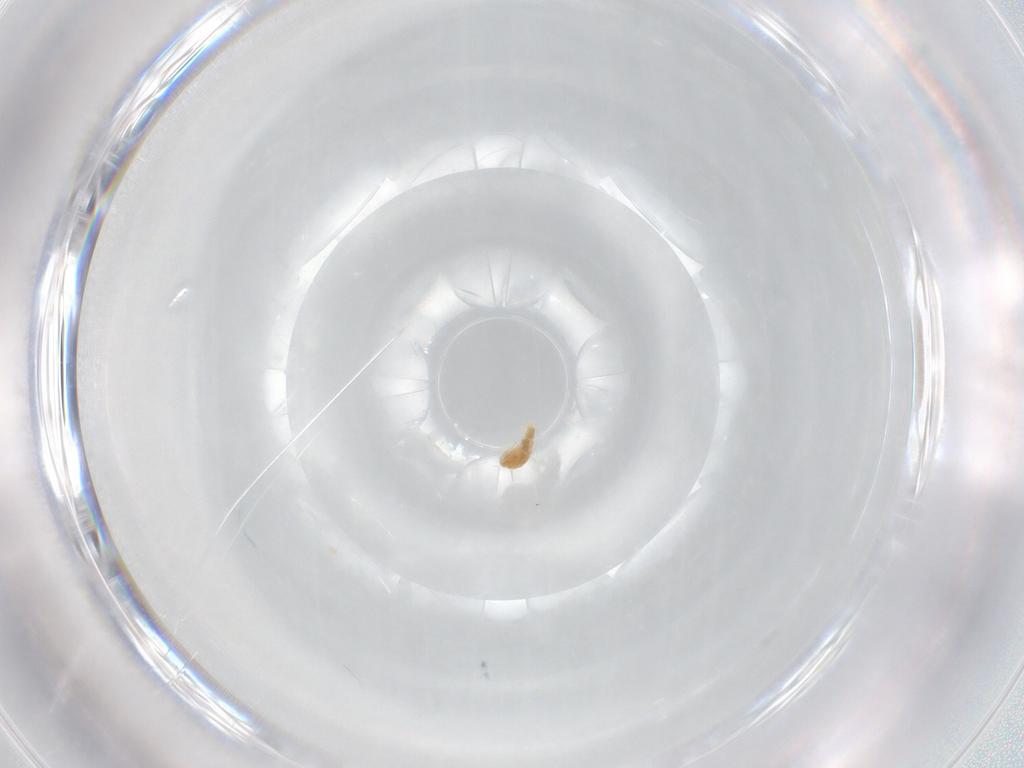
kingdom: Animalia
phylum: Arthropoda
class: Arachnida
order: Trombidiformes
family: Eupodidae
